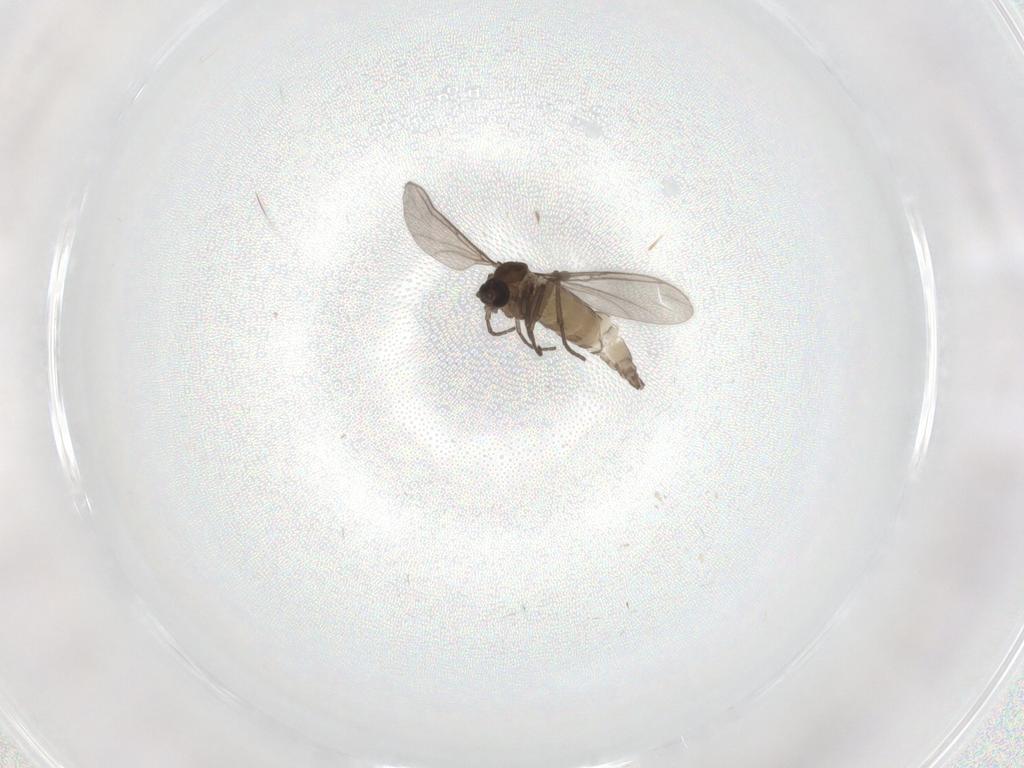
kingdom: Animalia
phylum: Arthropoda
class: Insecta
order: Diptera
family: Sciaridae
